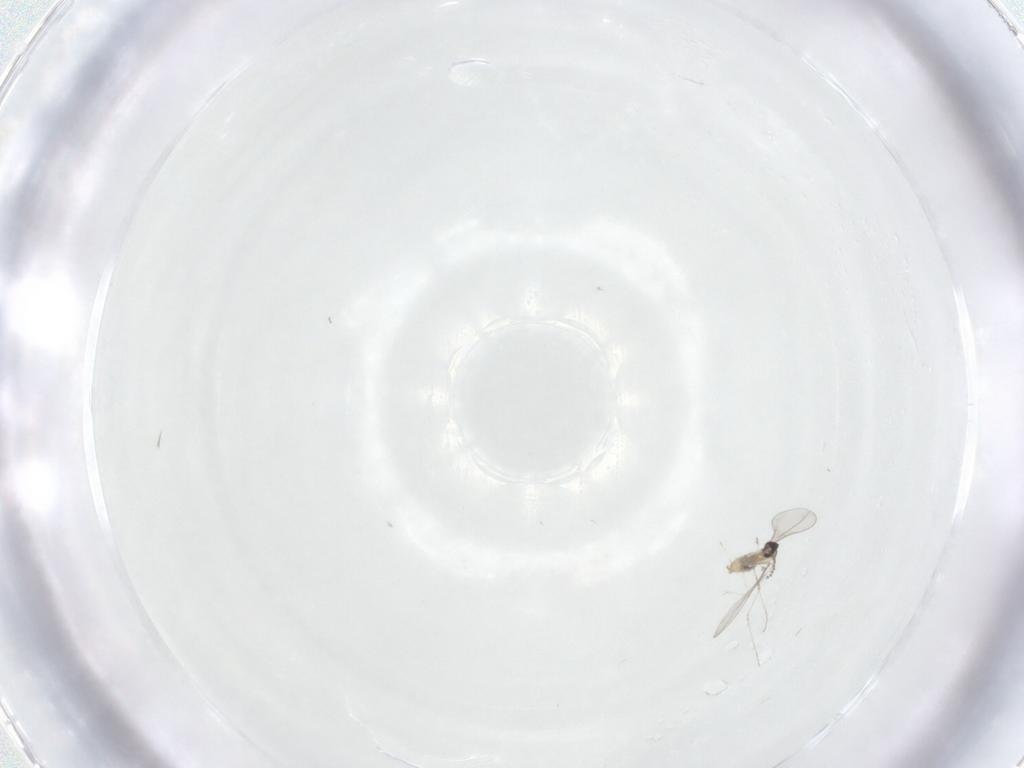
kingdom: Animalia
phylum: Arthropoda
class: Insecta
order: Diptera
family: Cecidomyiidae
